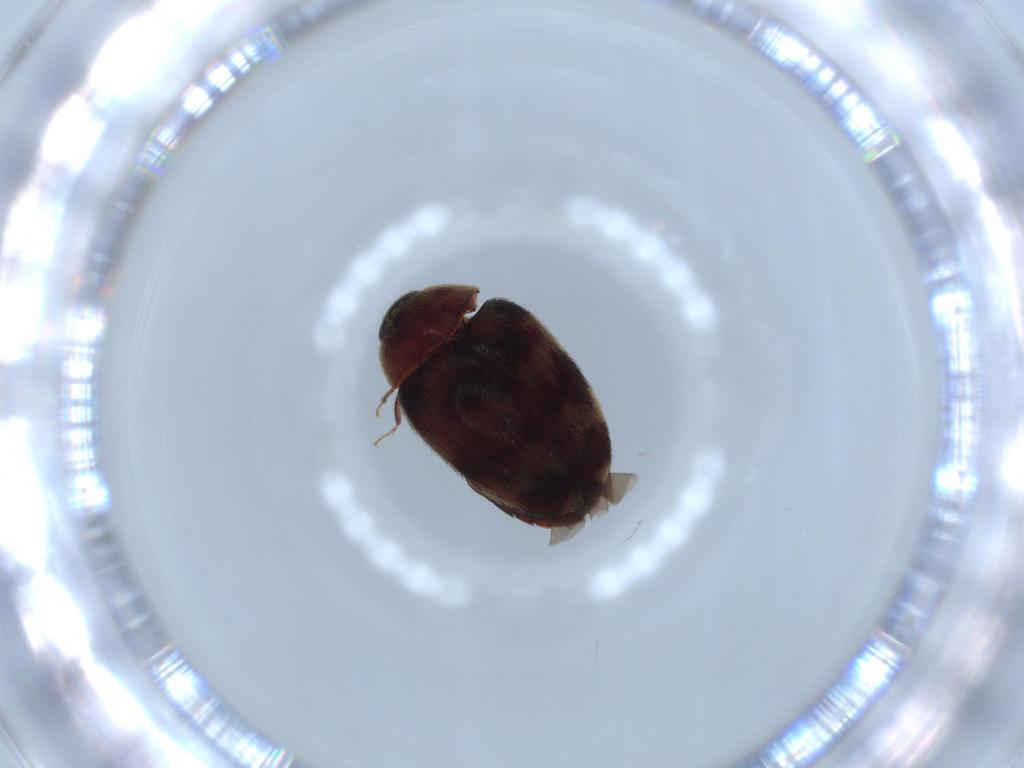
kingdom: Animalia
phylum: Arthropoda
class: Insecta
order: Coleoptera
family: Dermestidae
